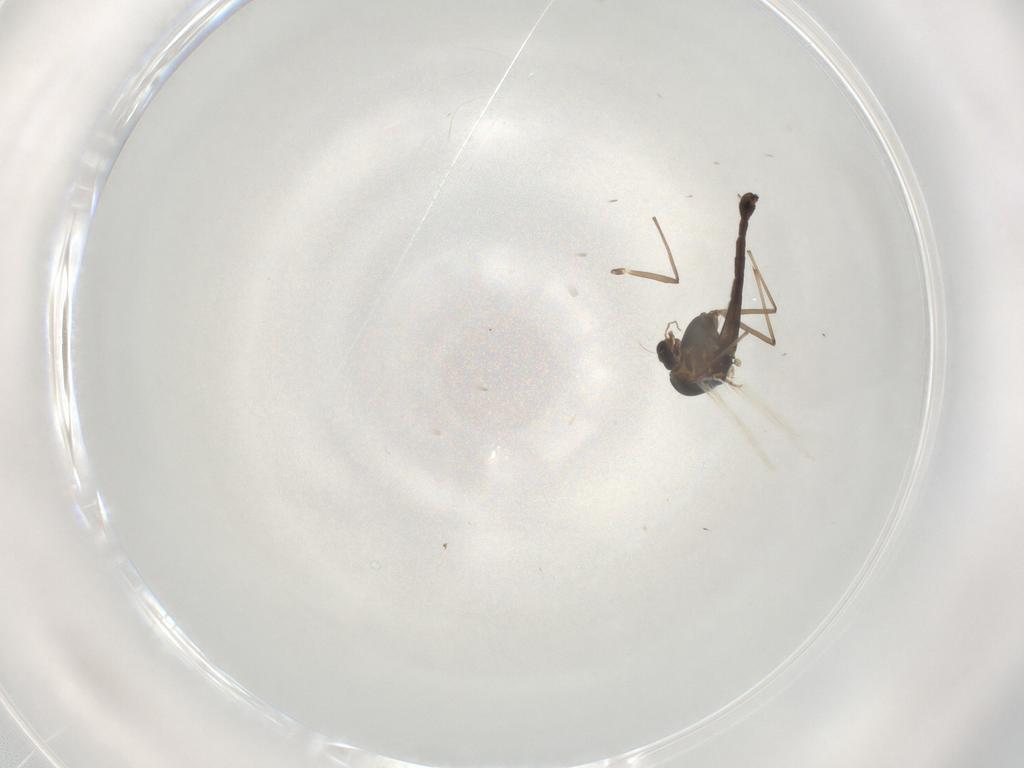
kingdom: Animalia
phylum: Arthropoda
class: Insecta
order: Diptera
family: Chironomidae
